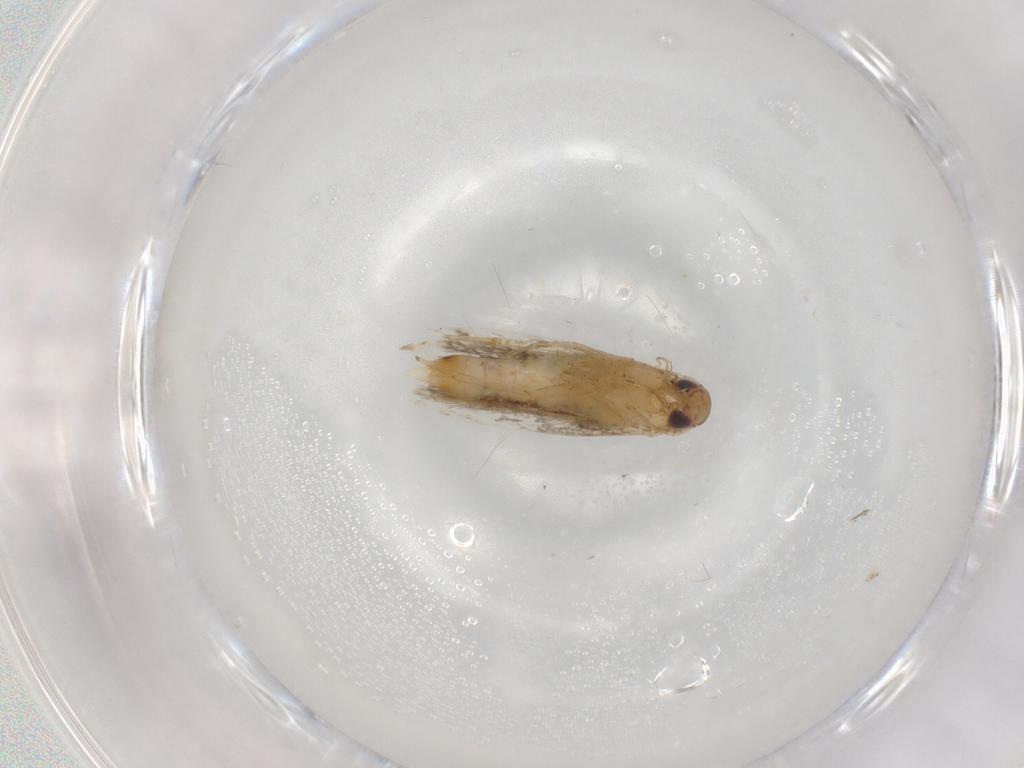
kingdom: Animalia
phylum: Arthropoda
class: Insecta
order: Lepidoptera
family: Crambidae
